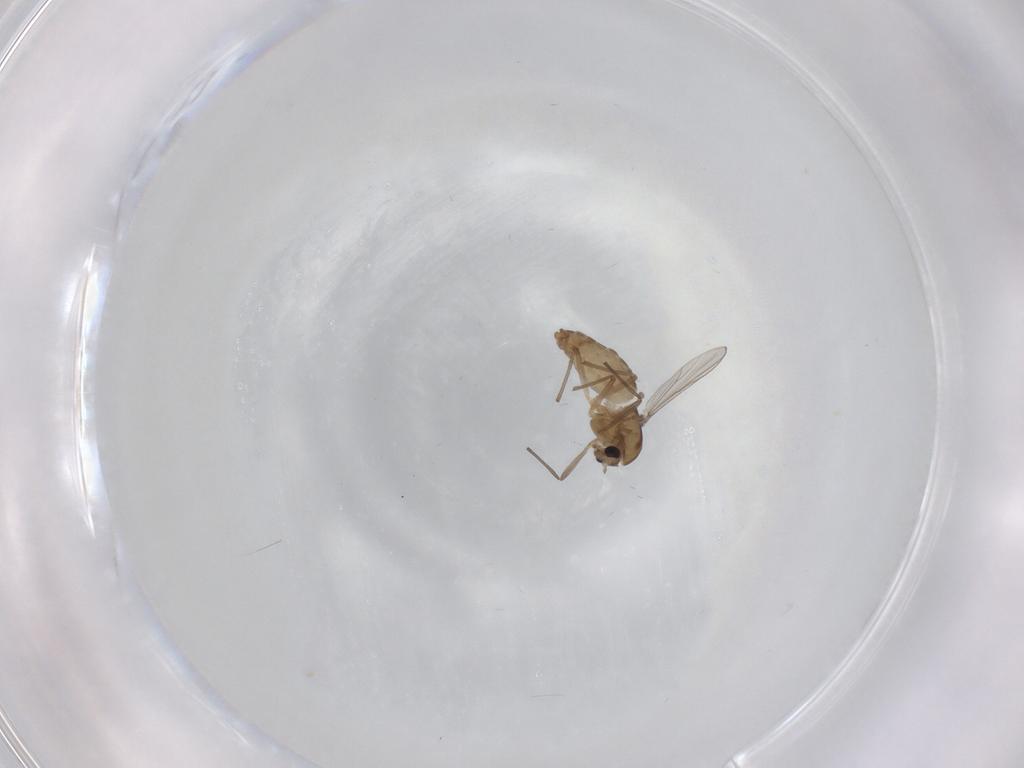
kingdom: Animalia
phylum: Arthropoda
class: Insecta
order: Diptera
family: Chironomidae
